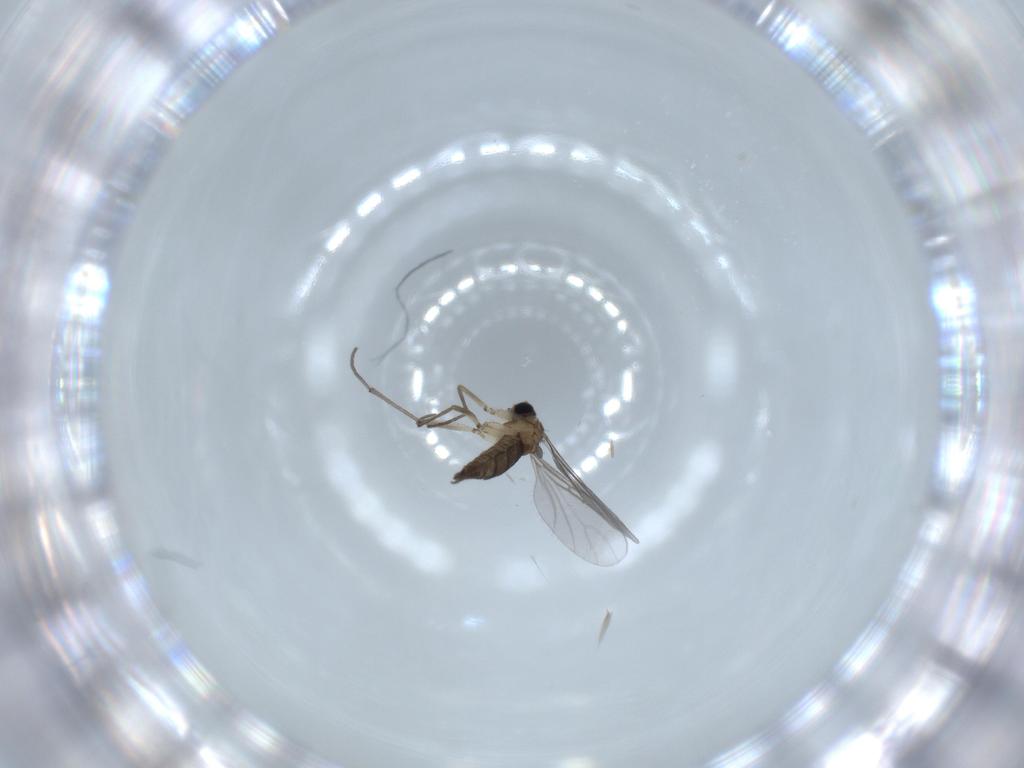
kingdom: Animalia
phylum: Arthropoda
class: Insecta
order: Diptera
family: Sciaridae
